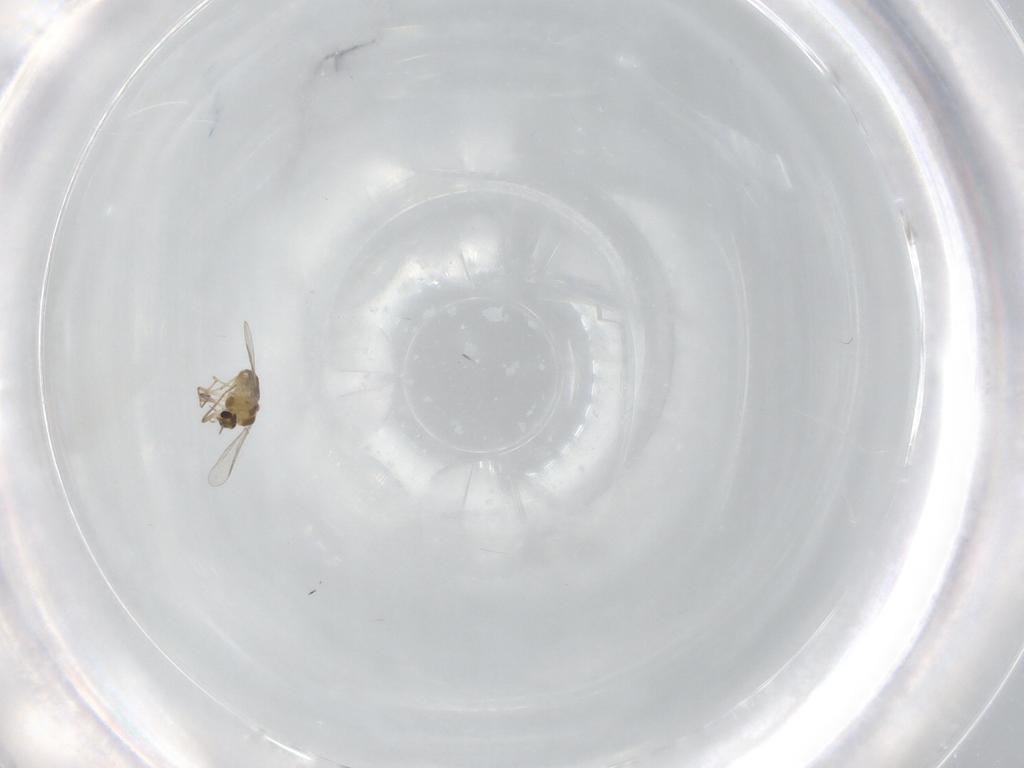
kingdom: Animalia
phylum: Arthropoda
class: Insecta
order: Diptera
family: Chironomidae
